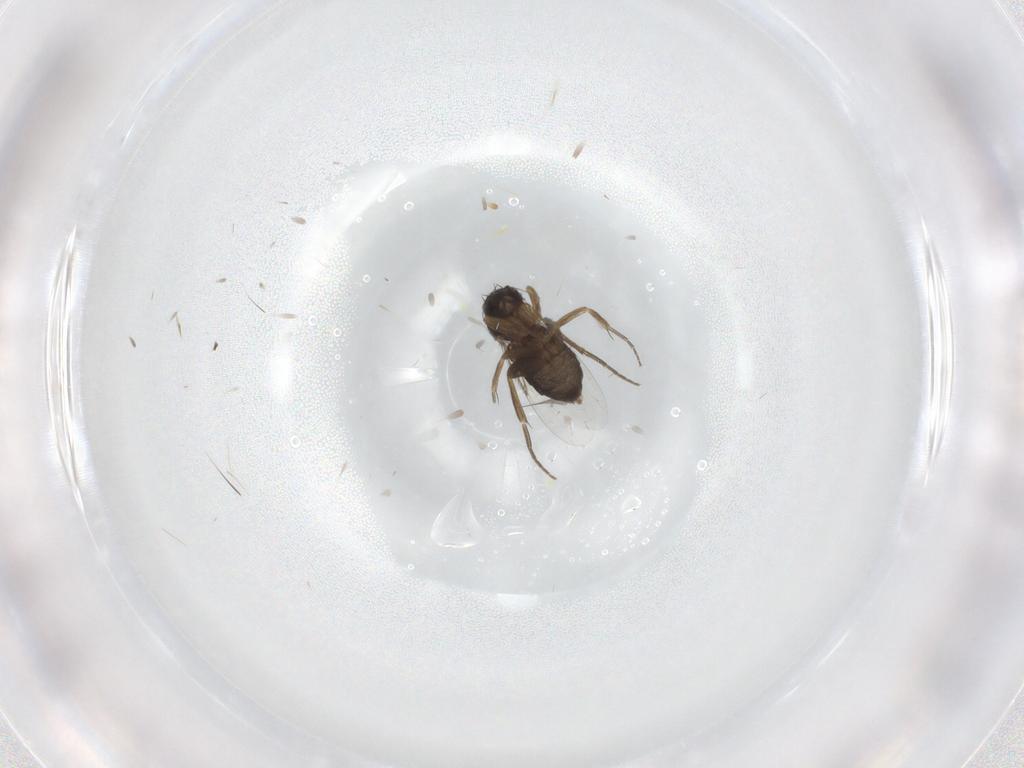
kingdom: Animalia
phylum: Arthropoda
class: Insecta
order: Diptera
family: Phoridae
